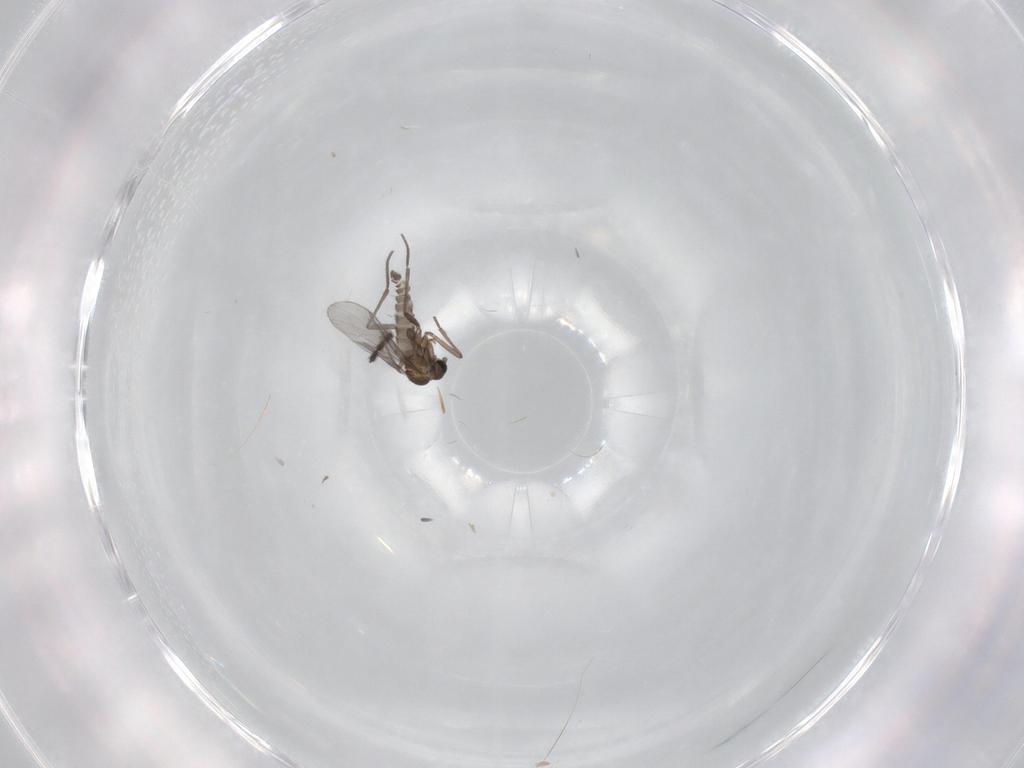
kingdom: Animalia
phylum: Arthropoda
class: Insecta
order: Diptera
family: Sciaridae
